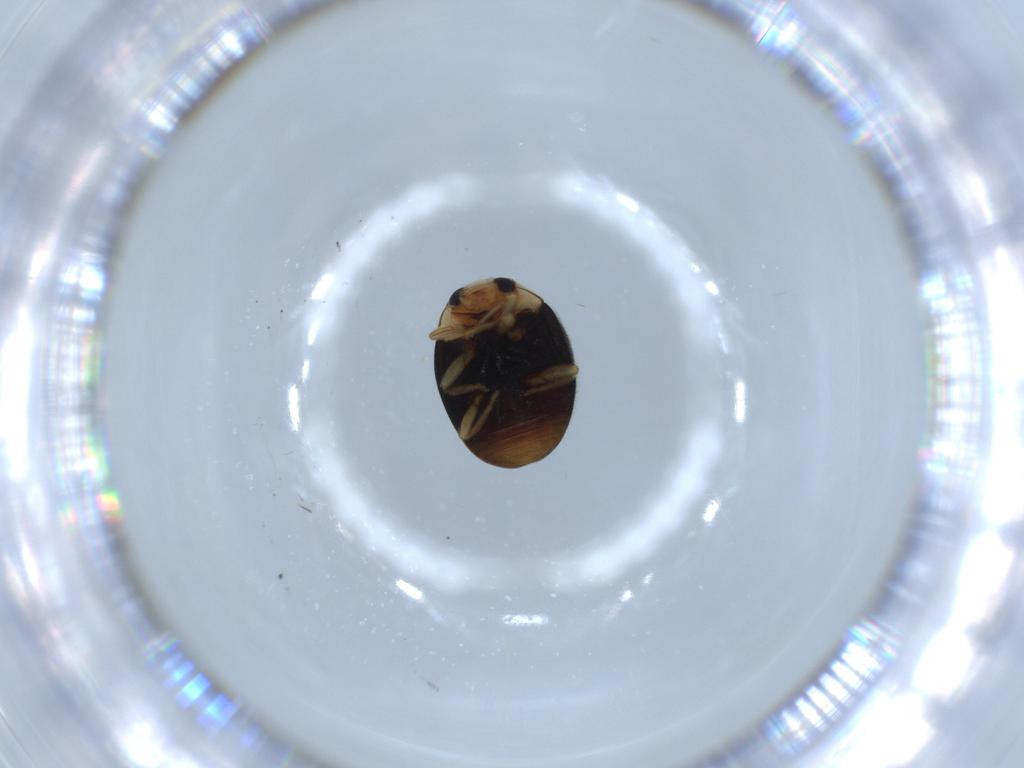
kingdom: Animalia
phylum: Arthropoda
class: Insecta
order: Coleoptera
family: Coccinellidae
